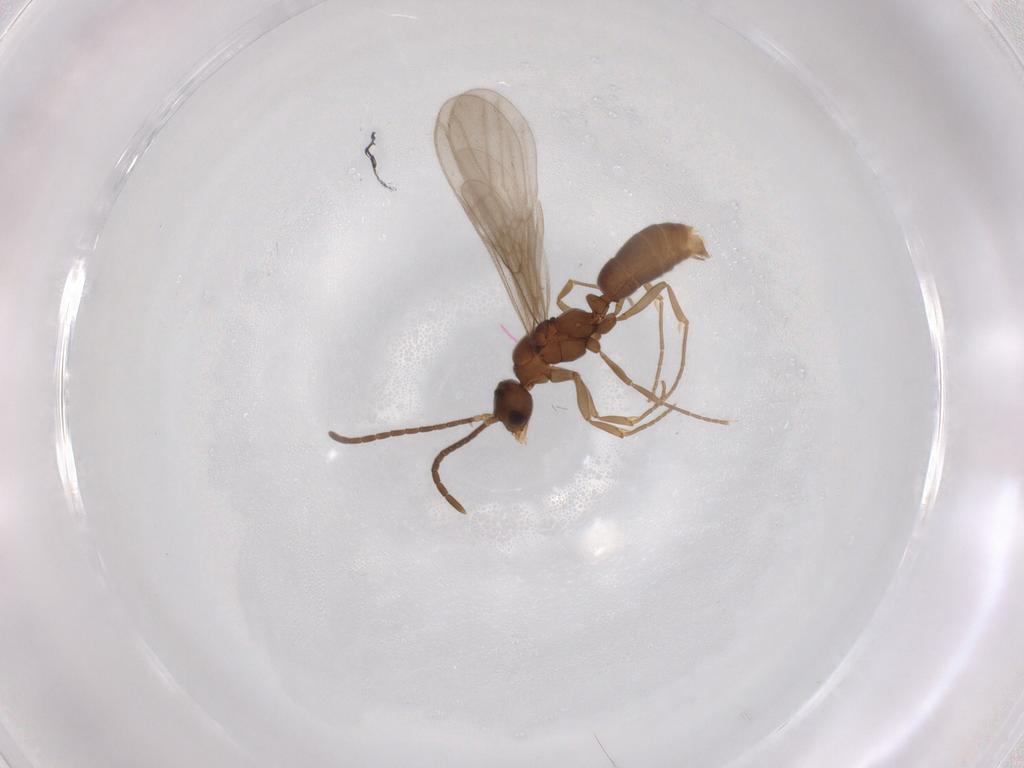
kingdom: Animalia
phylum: Arthropoda
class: Insecta
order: Hymenoptera
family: Formicidae
